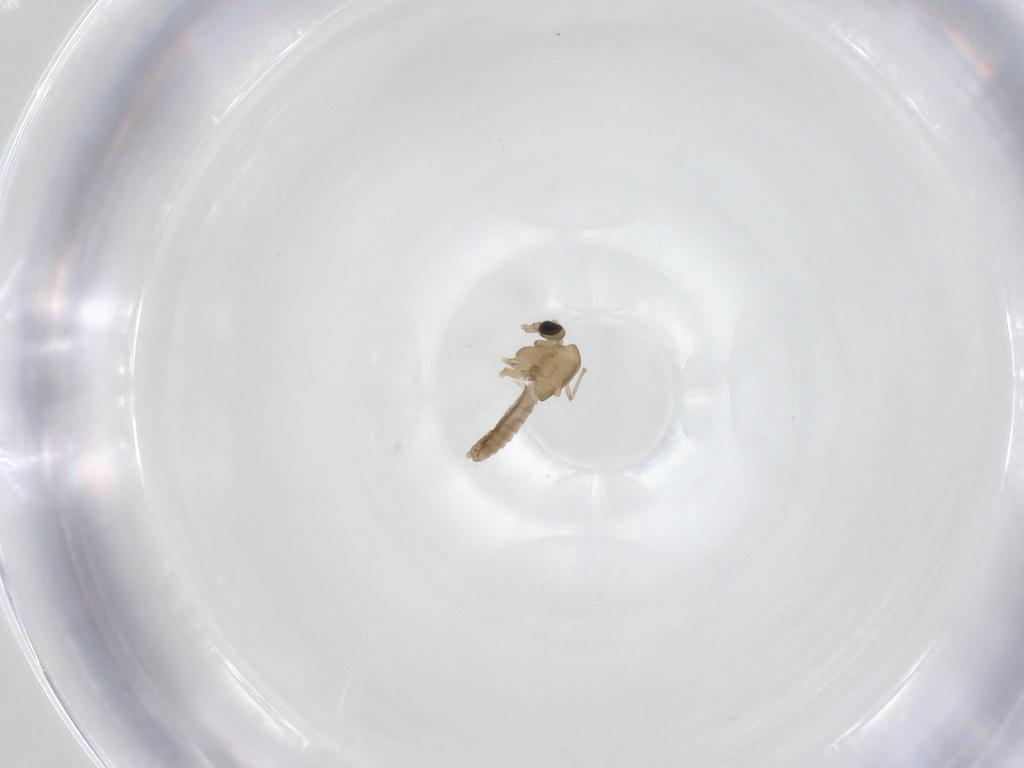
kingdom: Animalia
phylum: Arthropoda
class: Insecta
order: Diptera
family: Chironomidae
